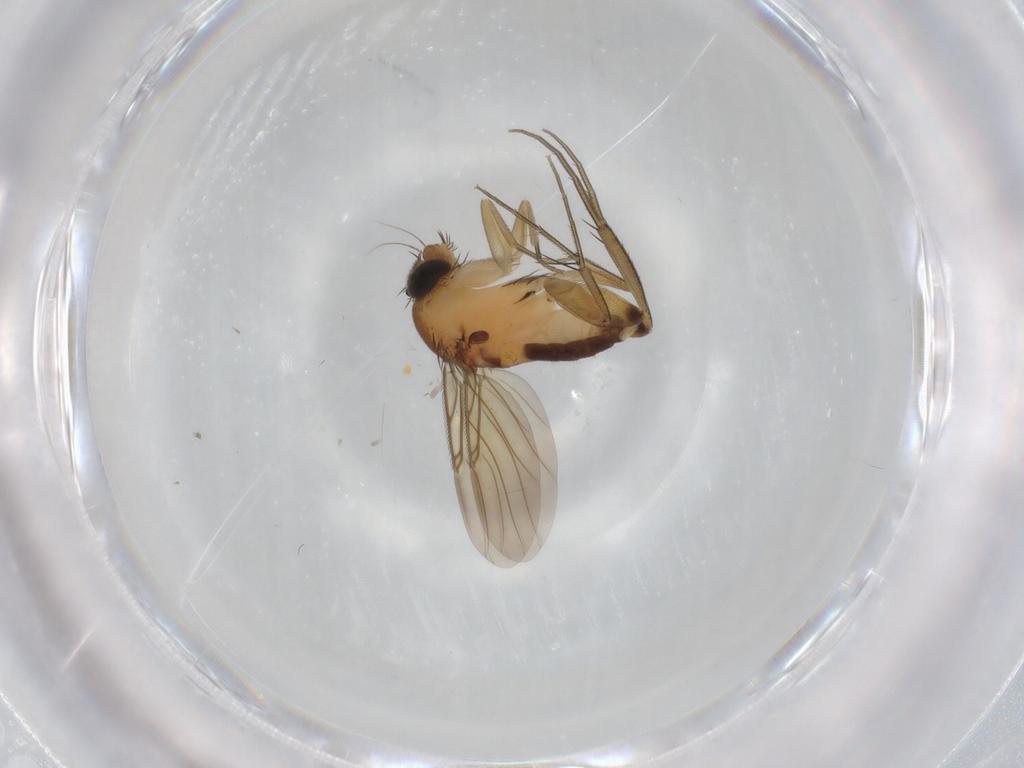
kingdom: Animalia
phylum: Arthropoda
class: Insecta
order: Diptera
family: Phoridae
